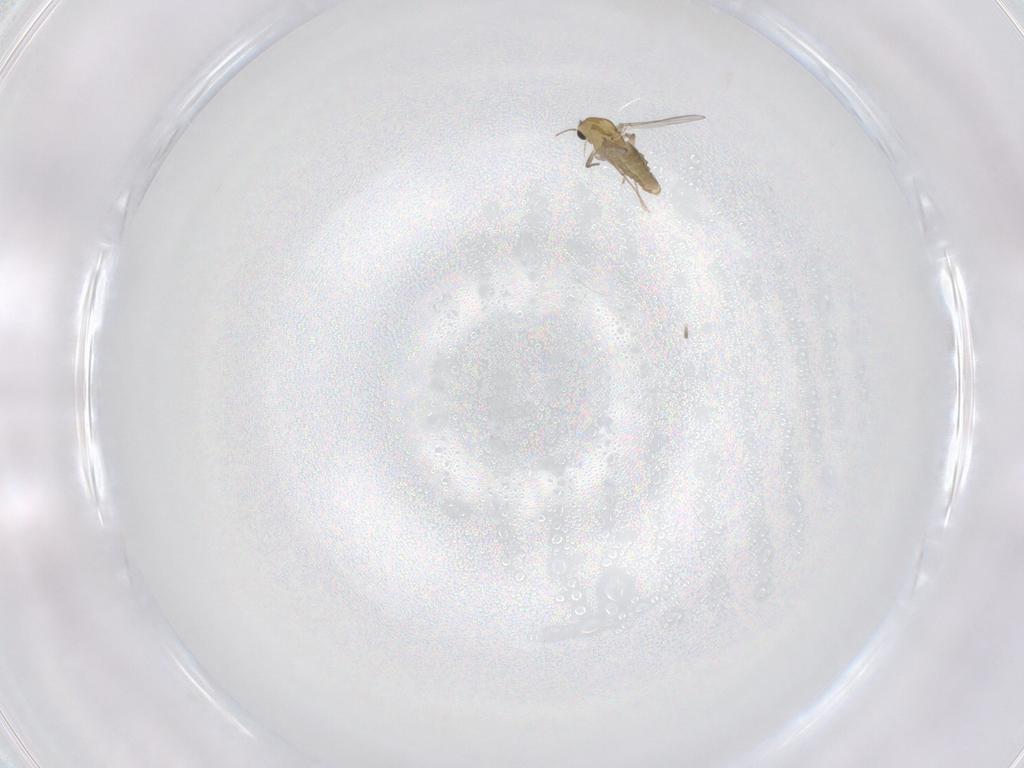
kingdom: Animalia
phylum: Arthropoda
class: Insecta
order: Diptera
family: Chironomidae
